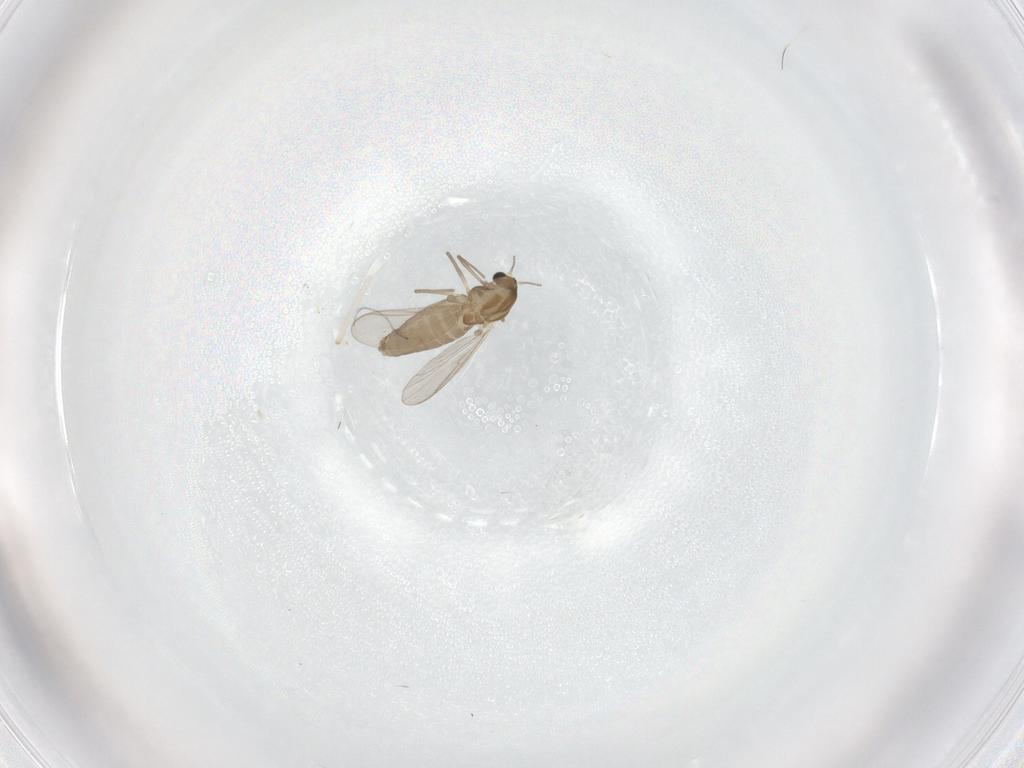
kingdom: Animalia
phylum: Arthropoda
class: Insecta
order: Diptera
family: Chironomidae
